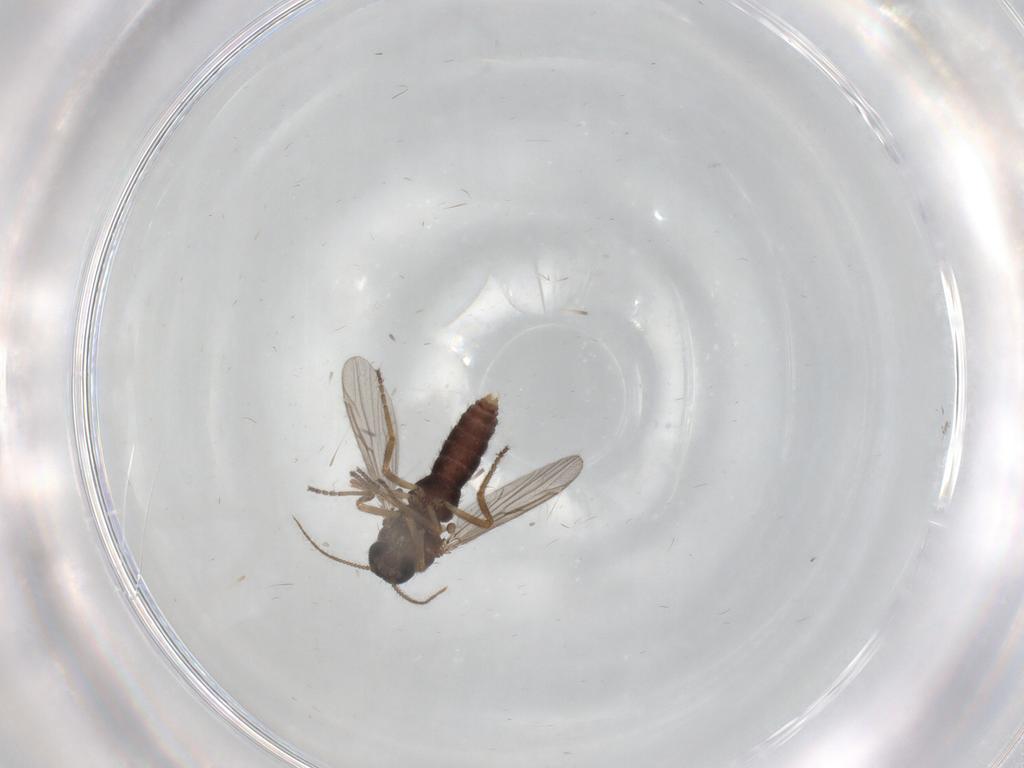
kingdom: Animalia
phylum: Arthropoda
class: Insecta
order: Diptera
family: Ceratopogonidae
